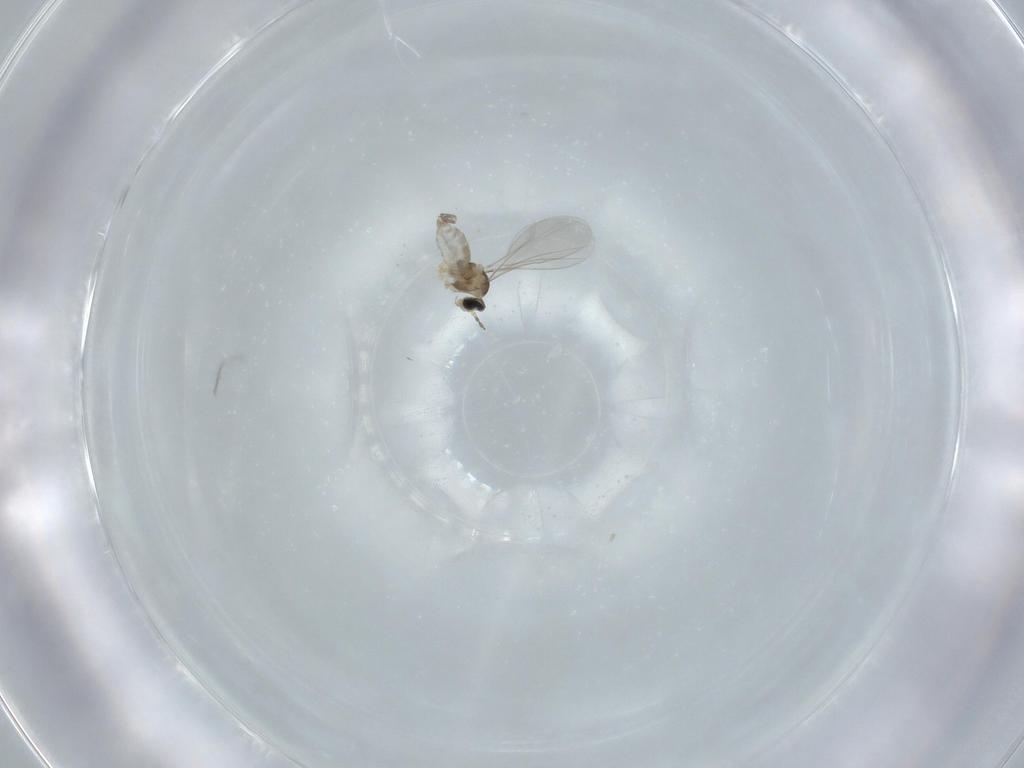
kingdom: Animalia
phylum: Arthropoda
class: Insecta
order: Diptera
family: Cecidomyiidae
